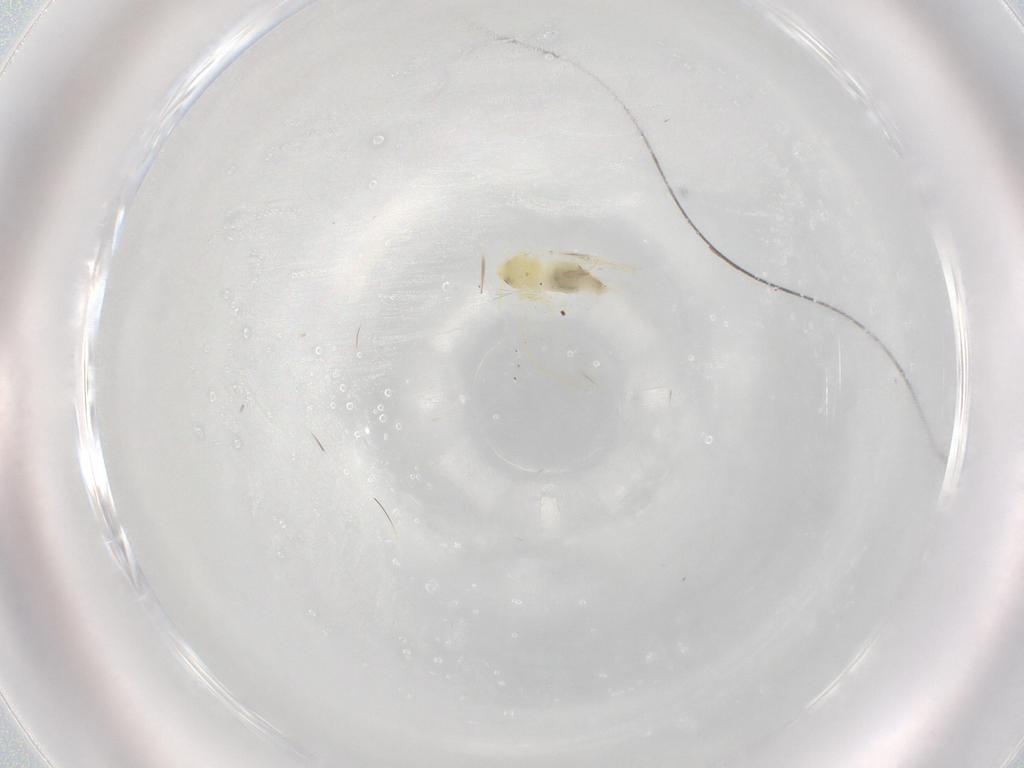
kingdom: Animalia
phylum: Arthropoda
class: Insecta
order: Hemiptera
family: Aleyrodidae
